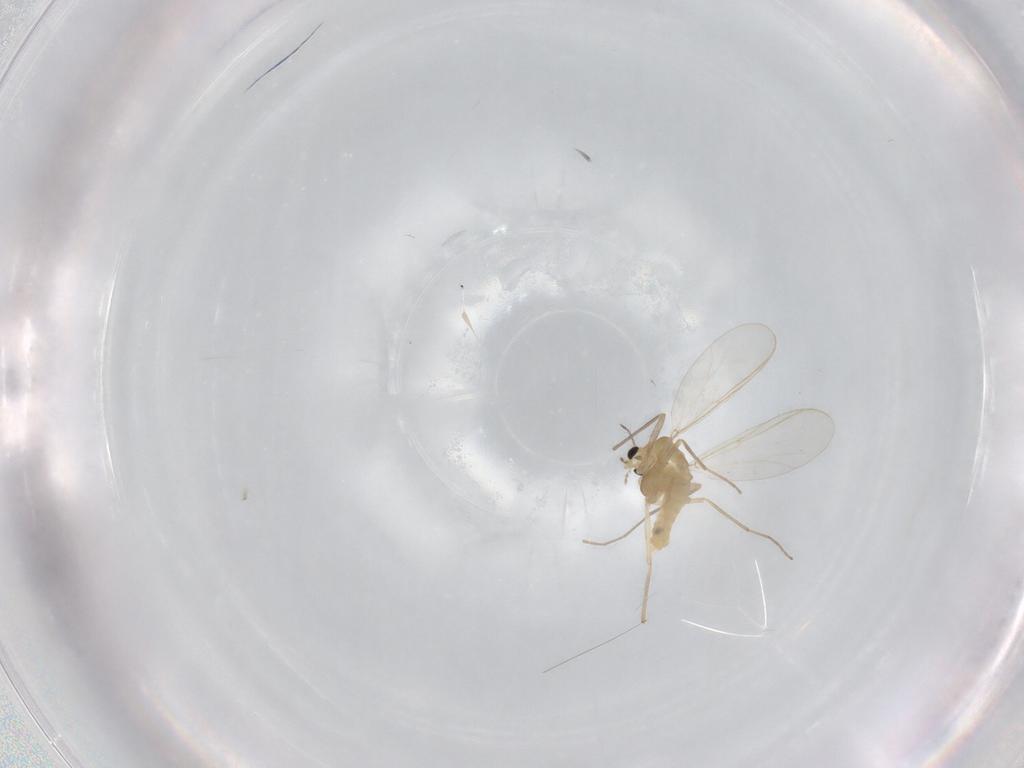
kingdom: Animalia
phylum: Arthropoda
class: Insecta
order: Diptera
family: Chironomidae
